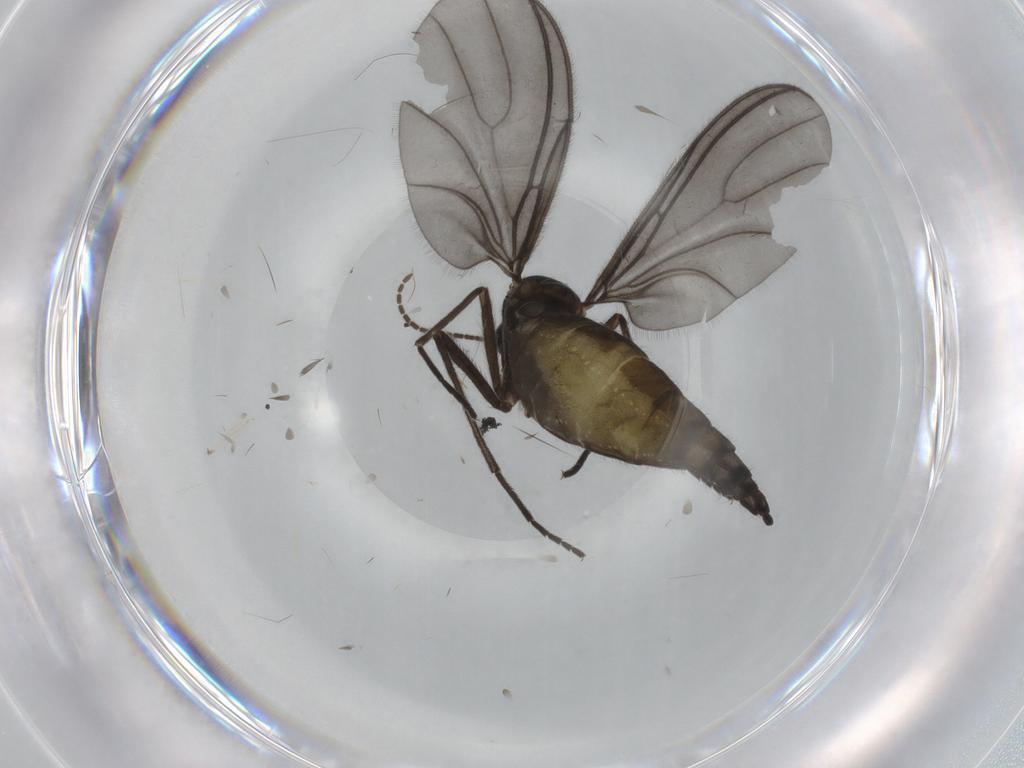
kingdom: Animalia
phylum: Arthropoda
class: Insecta
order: Diptera
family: Sciaridae
